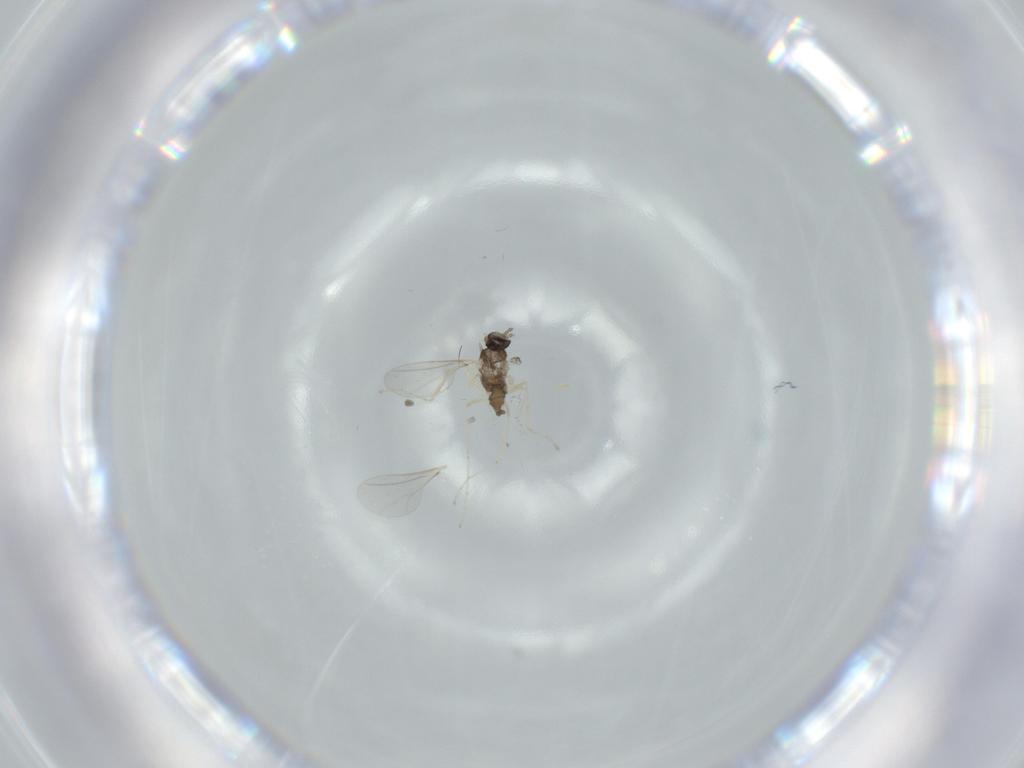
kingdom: Animalia
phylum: Arthropoda
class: Insecta
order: Diptera
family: Cecidomyiidae
